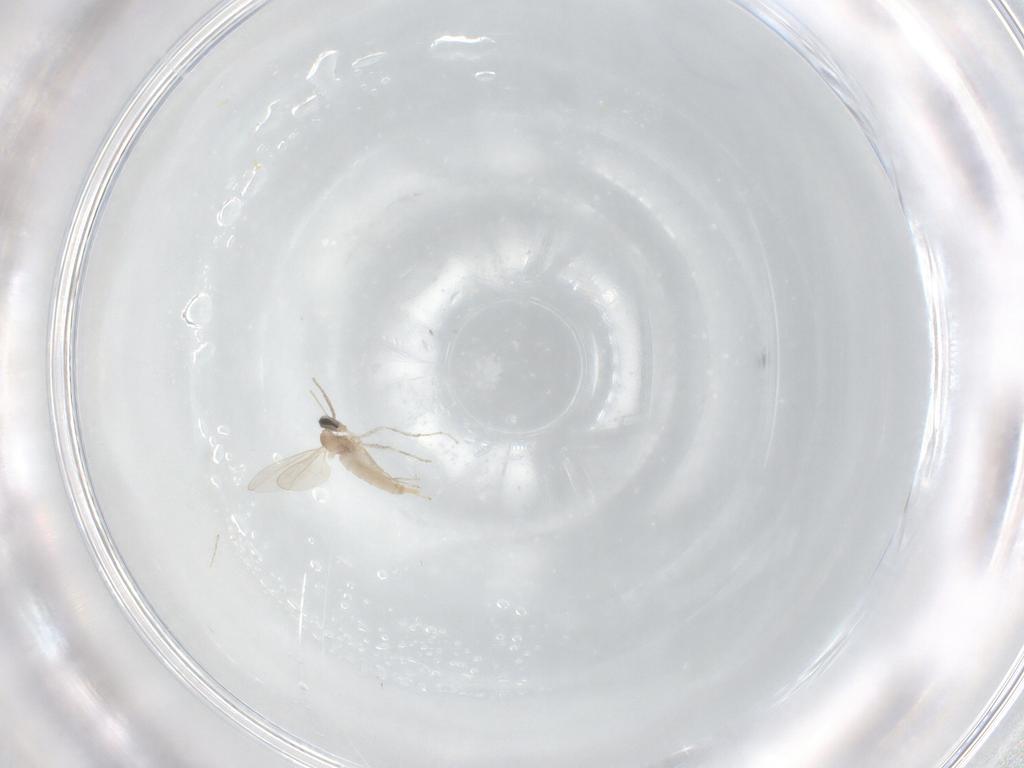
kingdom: Animalia
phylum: Arthropoda
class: Insecta
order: Diptera
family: Cecidomyiidae
